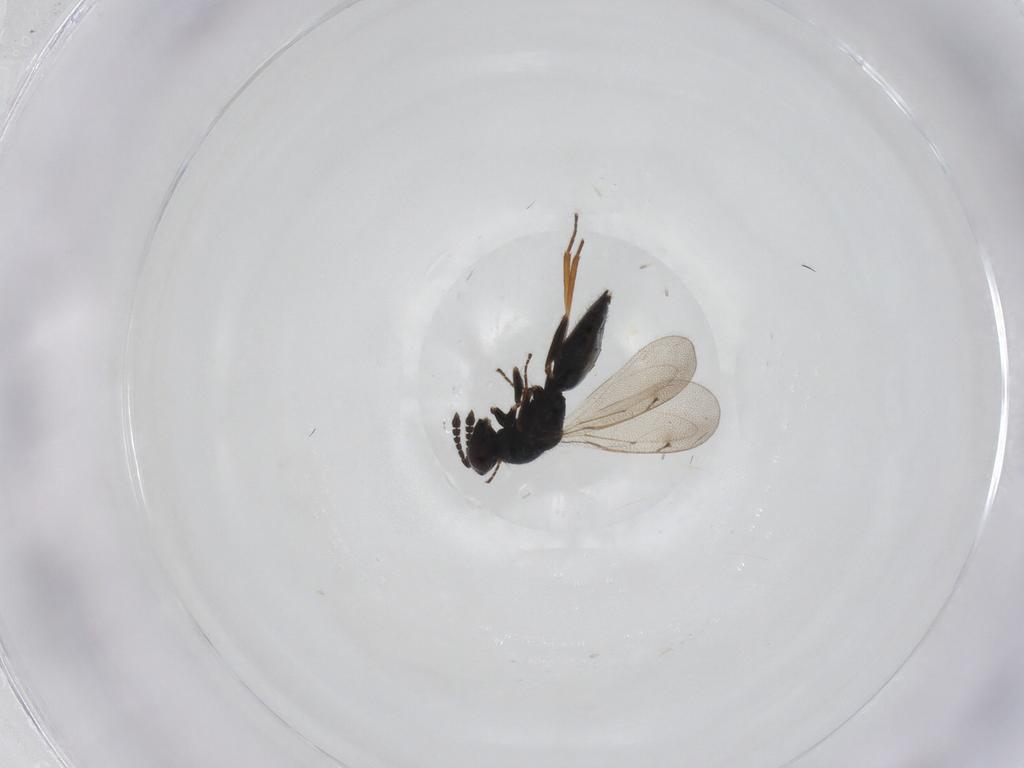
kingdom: Animalia
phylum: Arthropoda
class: Insecta
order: Hymenoptera
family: Eulophidae
